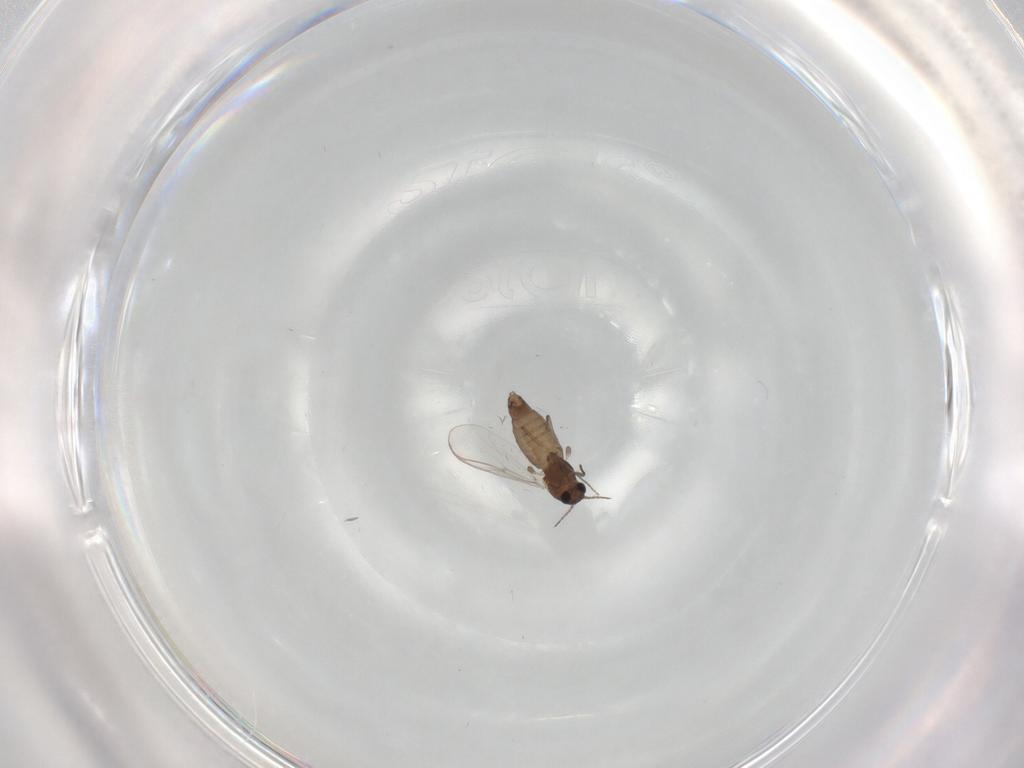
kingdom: Animalia
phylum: Arthropoda
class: Insecta
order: Diptera
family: Chironomidae
